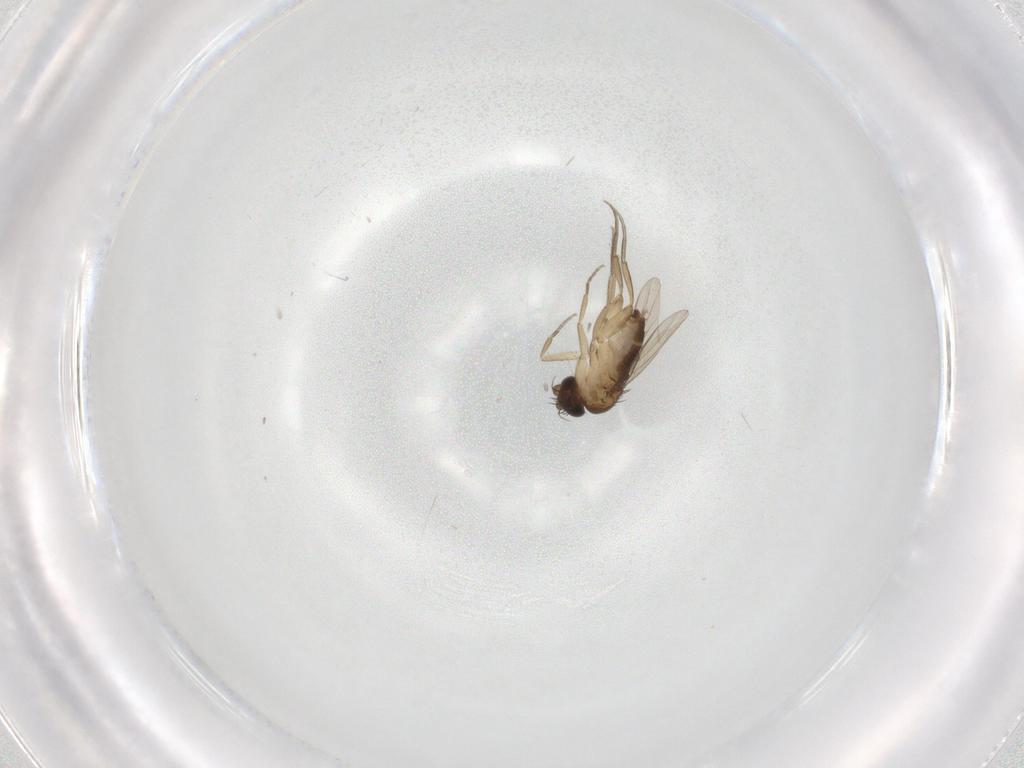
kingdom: Animalia
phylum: Arthropoda
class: Insecta
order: Diptera
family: Phoridae
